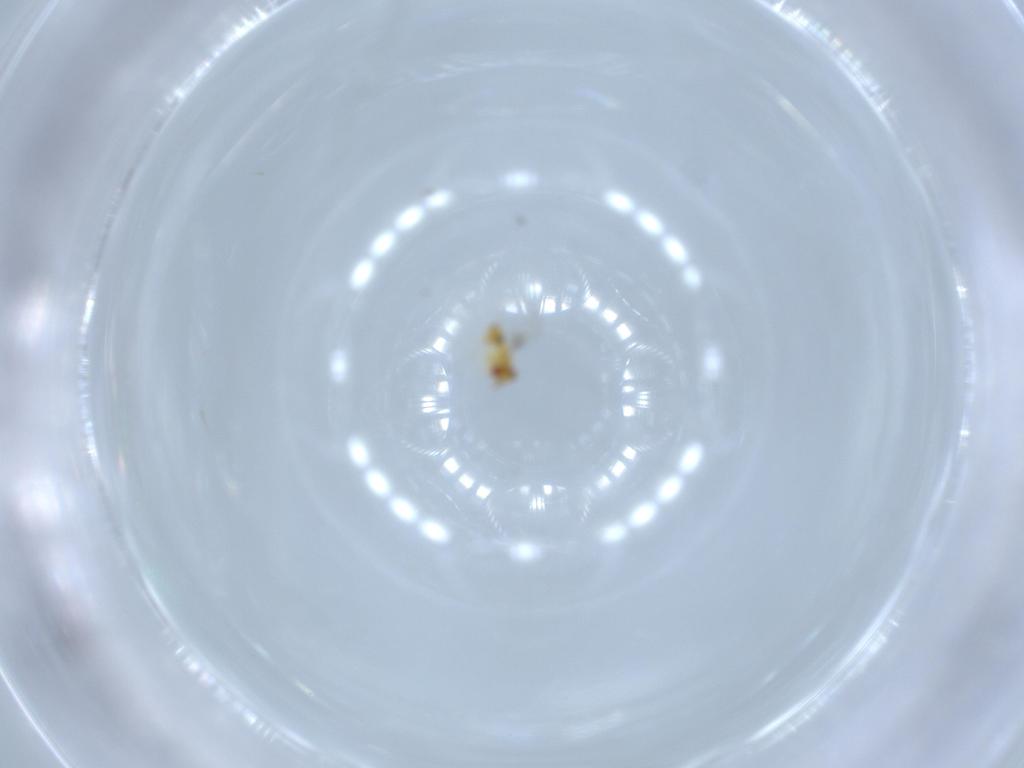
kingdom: Animalia
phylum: Arthropoda
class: Insecta
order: Hymenoptera
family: Trichogrammatidae
